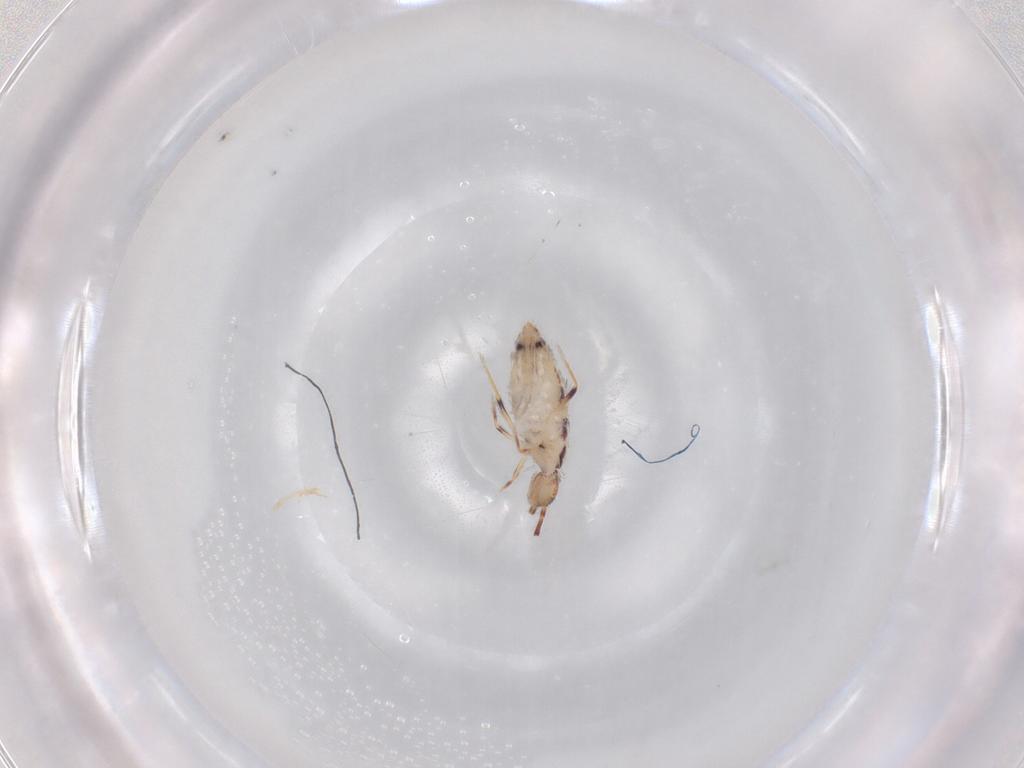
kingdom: Animalia
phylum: Arthropoda
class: Collembola
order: Entomobryomorpha
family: Entomobryidae
